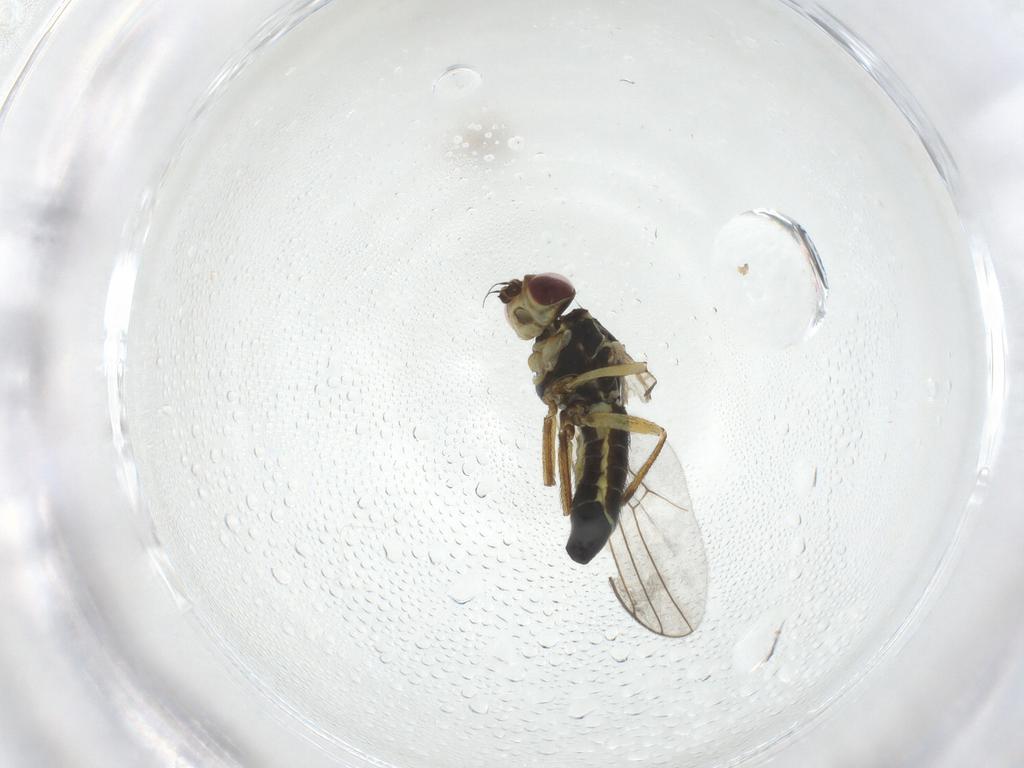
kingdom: Animalia
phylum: Arthropoda
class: Insecta
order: Diptera
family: Agromyzidae
